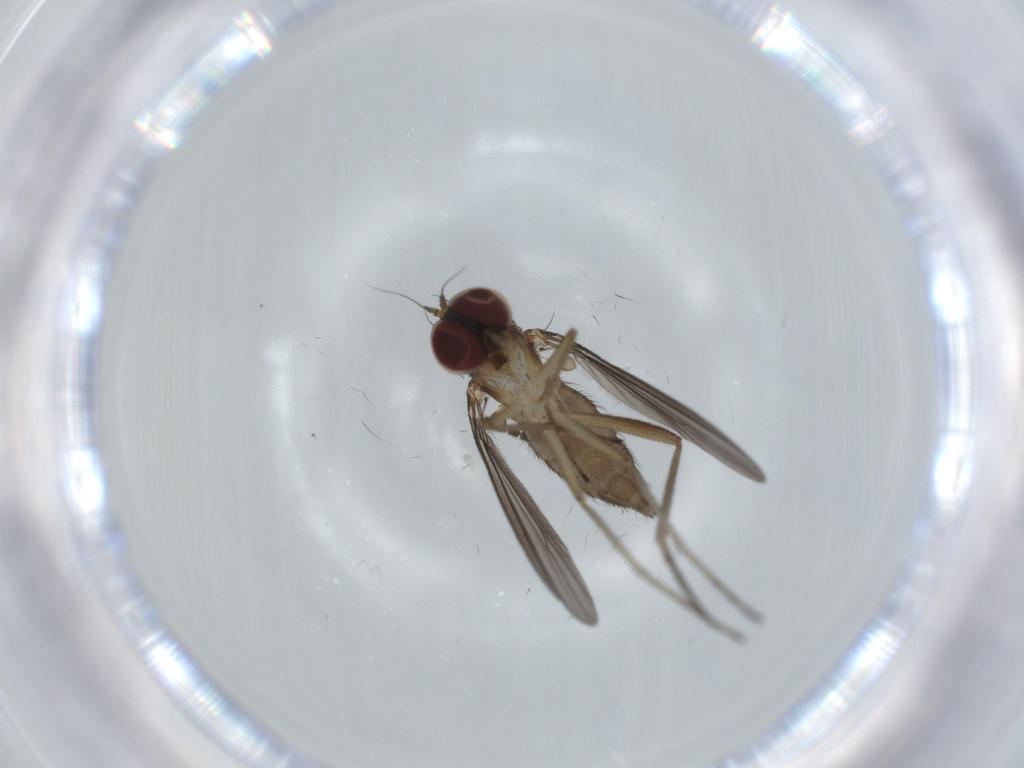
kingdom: Animalia
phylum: Arthropoda
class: Insecta
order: Diptera
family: Dolichopodidae
